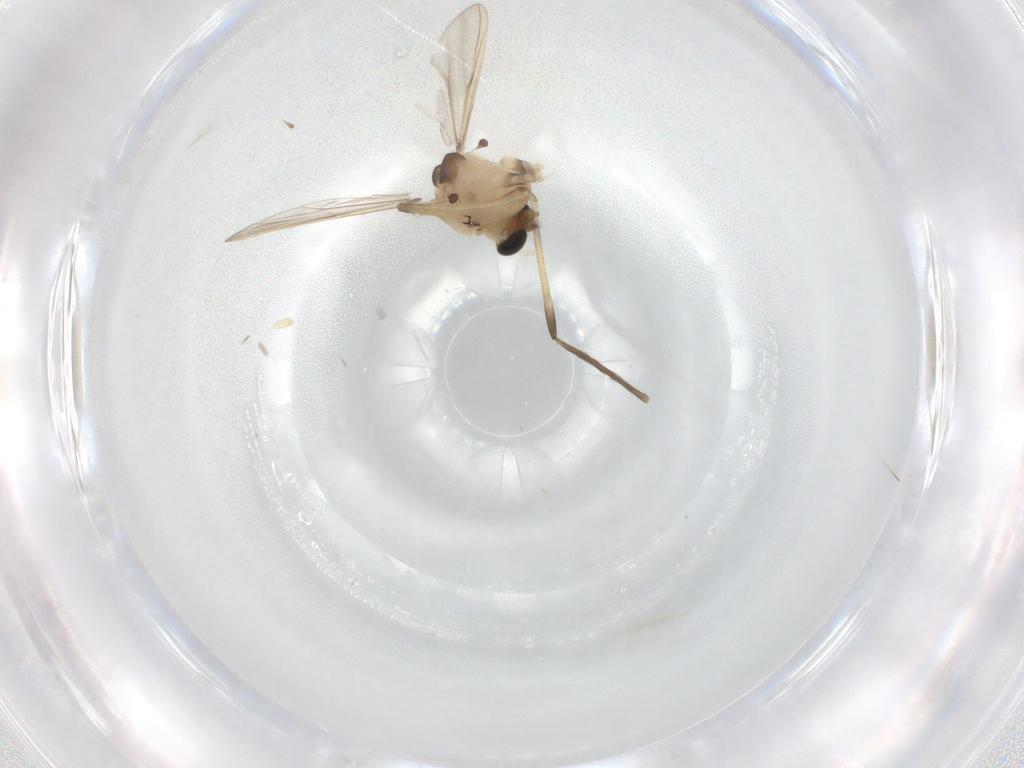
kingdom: Animalia
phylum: Arthropoda
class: Insecta
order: Diptera
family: Chironomidae
